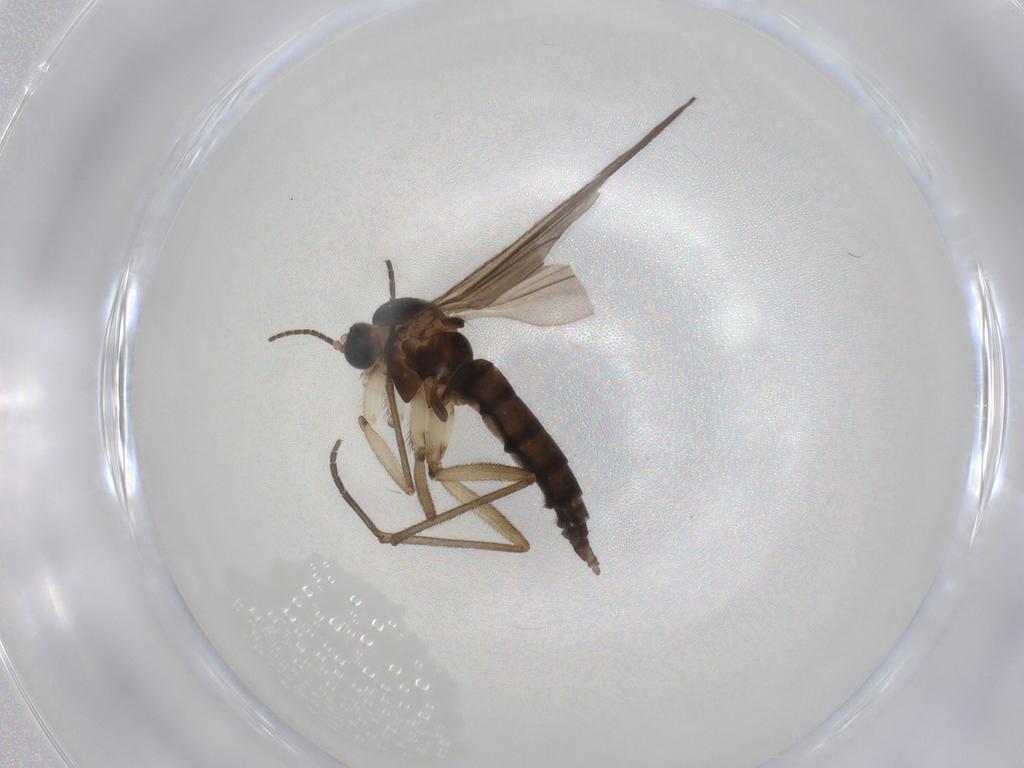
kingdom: Animalia
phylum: Arthropoda
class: Insecta
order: Diptera
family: Sciaridae
